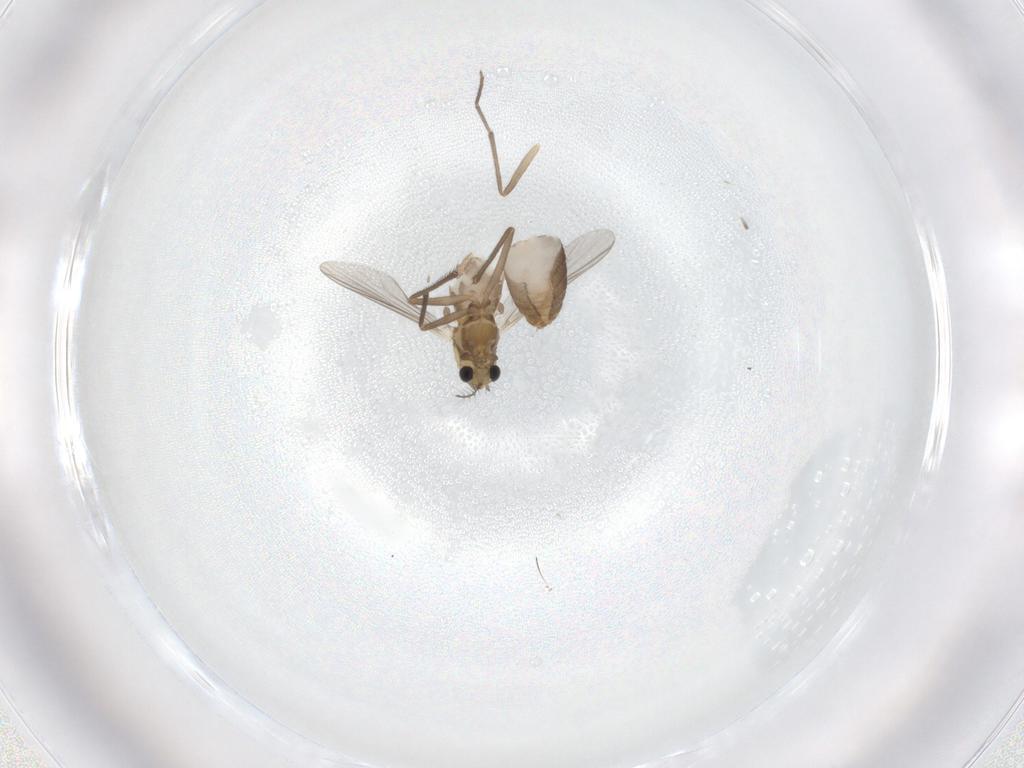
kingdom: Animalia
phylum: Arthropoda
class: Insecta
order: Diptera
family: Chironomidae
